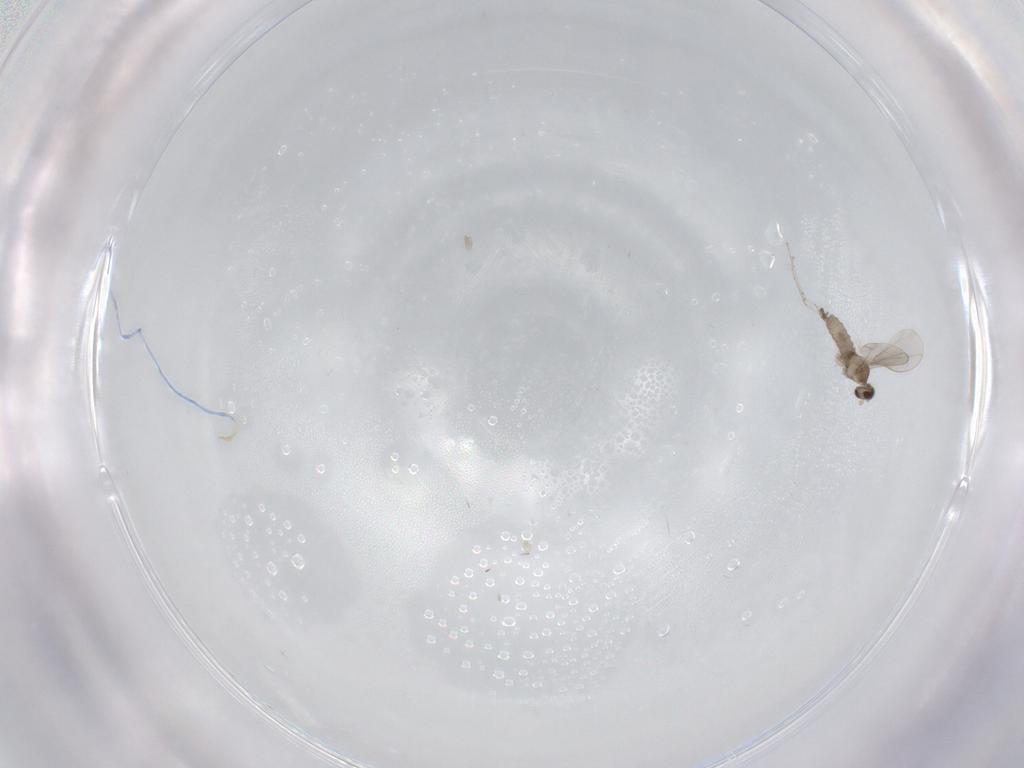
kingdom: Animalia
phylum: Arthropoda
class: Insecta
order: Diptera
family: Cecidomyiidae
